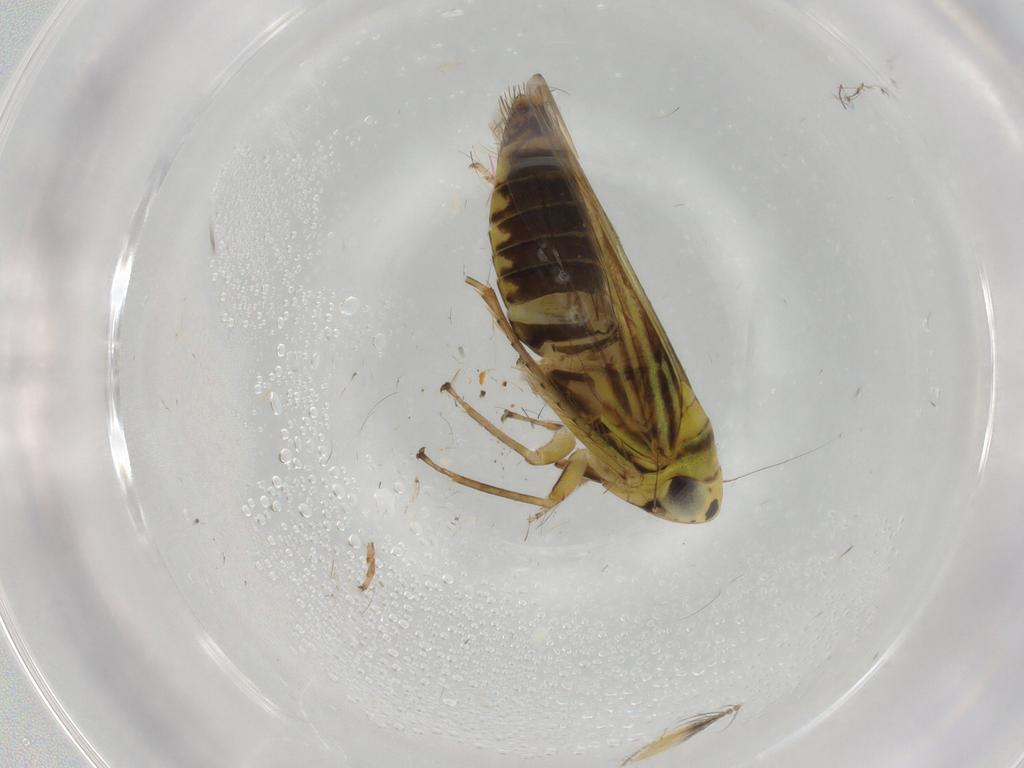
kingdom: Animalia
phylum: Arthropoda
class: Insecta
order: Hemiptera
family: Cicadellidae
